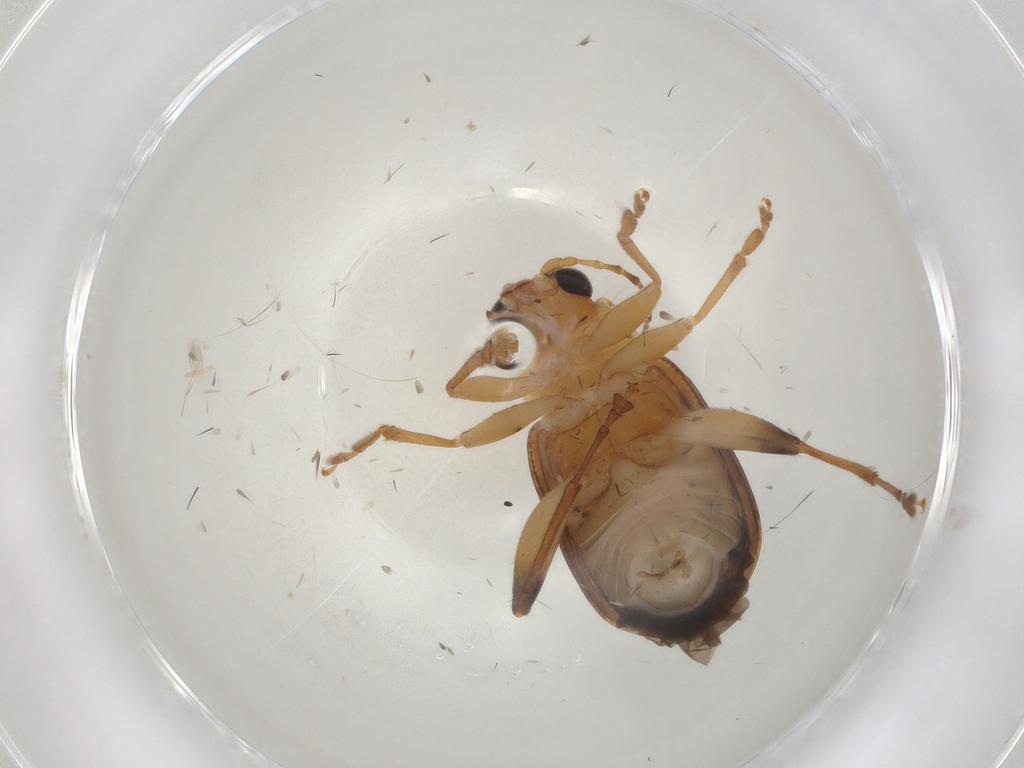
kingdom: Animalia
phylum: Arthropoda
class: Insecta
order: Coleoptera
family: Chrysomelidae
